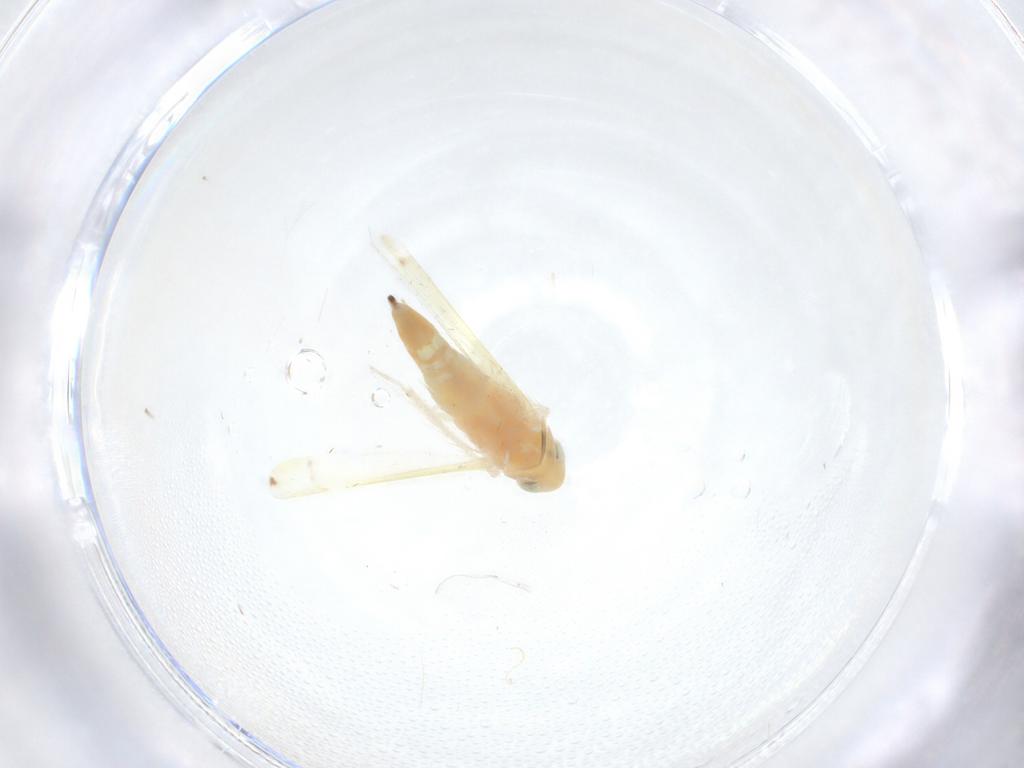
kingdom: Animalia
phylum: Arthropoda
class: Insecta
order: Hemiptera
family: Cicadellidae
